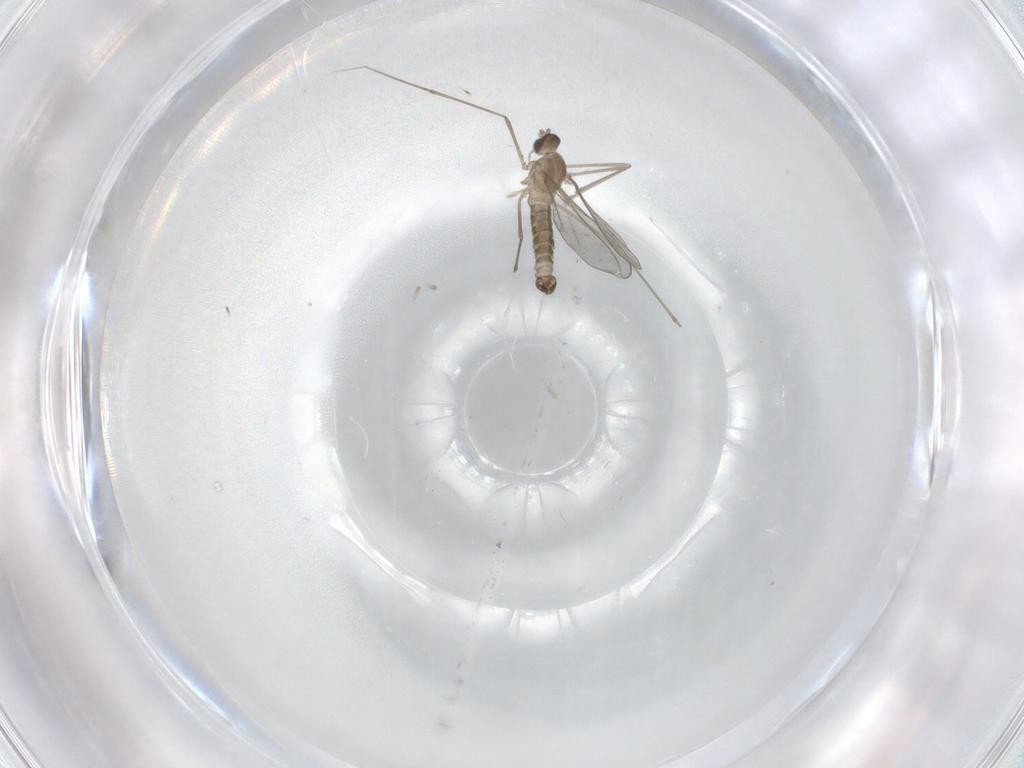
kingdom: Animalia
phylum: Arthropoda
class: Insecta
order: Diptera
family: Cecidomyiidae
